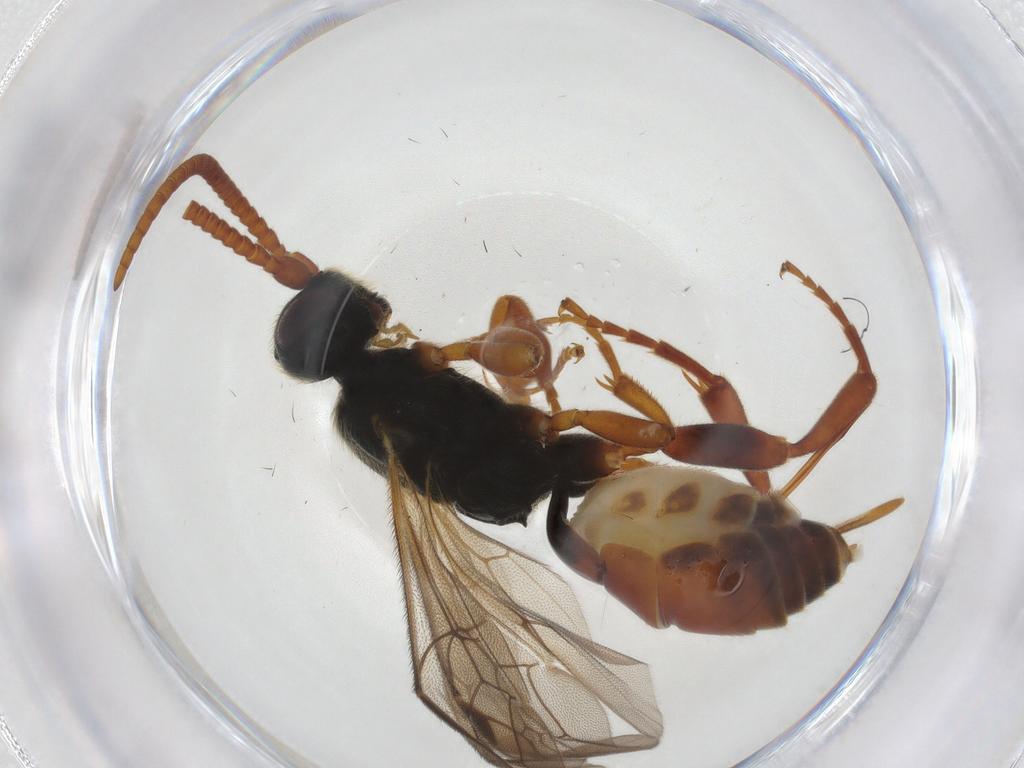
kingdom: Animalia
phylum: Arthropoda
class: Insecta
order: Hymenoptera
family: Ichneumonidae
